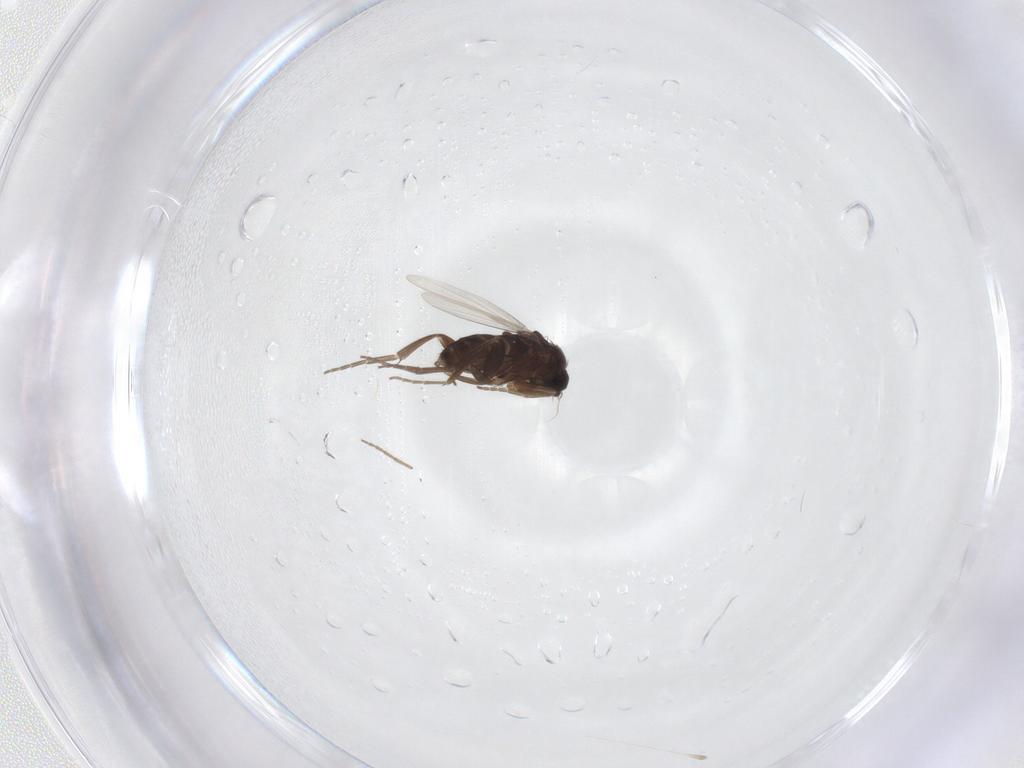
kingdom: Animalia
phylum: Arthropoda
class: Insecta
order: Diptera
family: Phoridae
